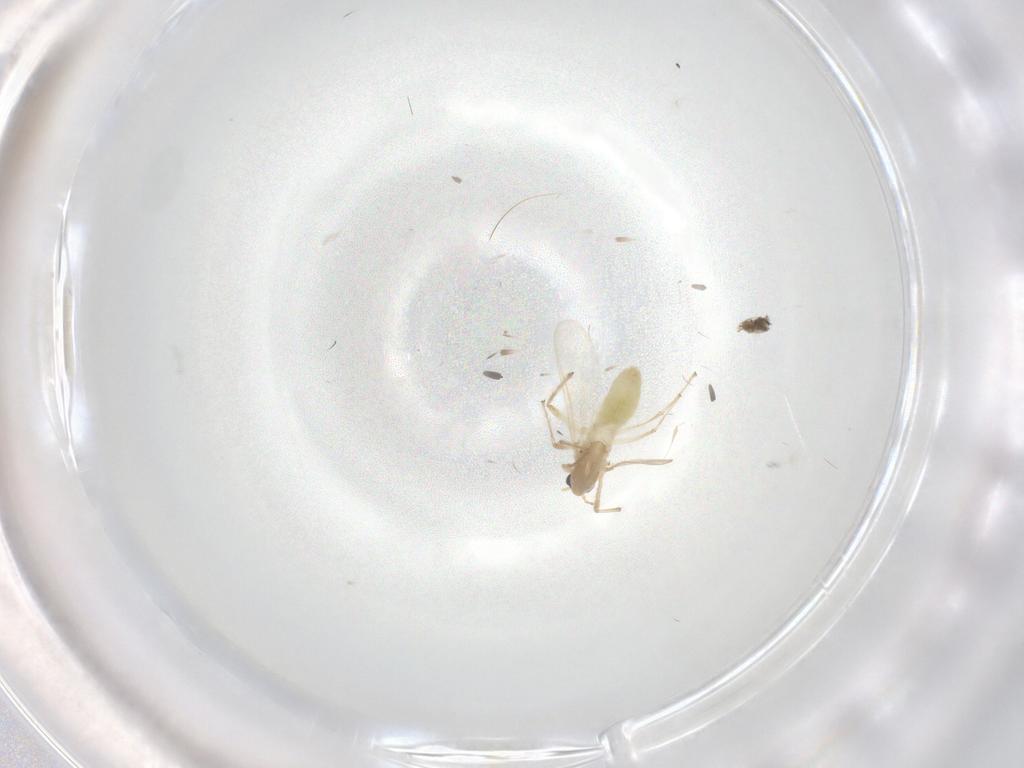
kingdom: Animalia
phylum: Arthropoda
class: Insecta
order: Diptera
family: Chironomidae
